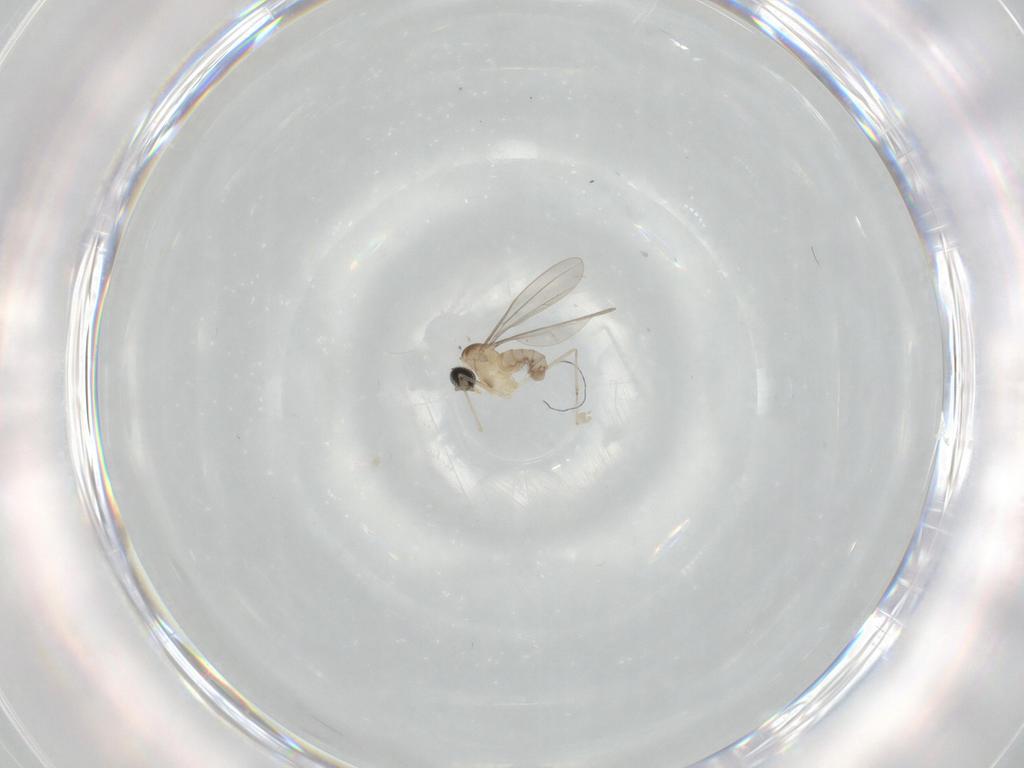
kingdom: Animalia
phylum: Arthropoda
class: Insecta
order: Diptera
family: Cecidomyiidae
